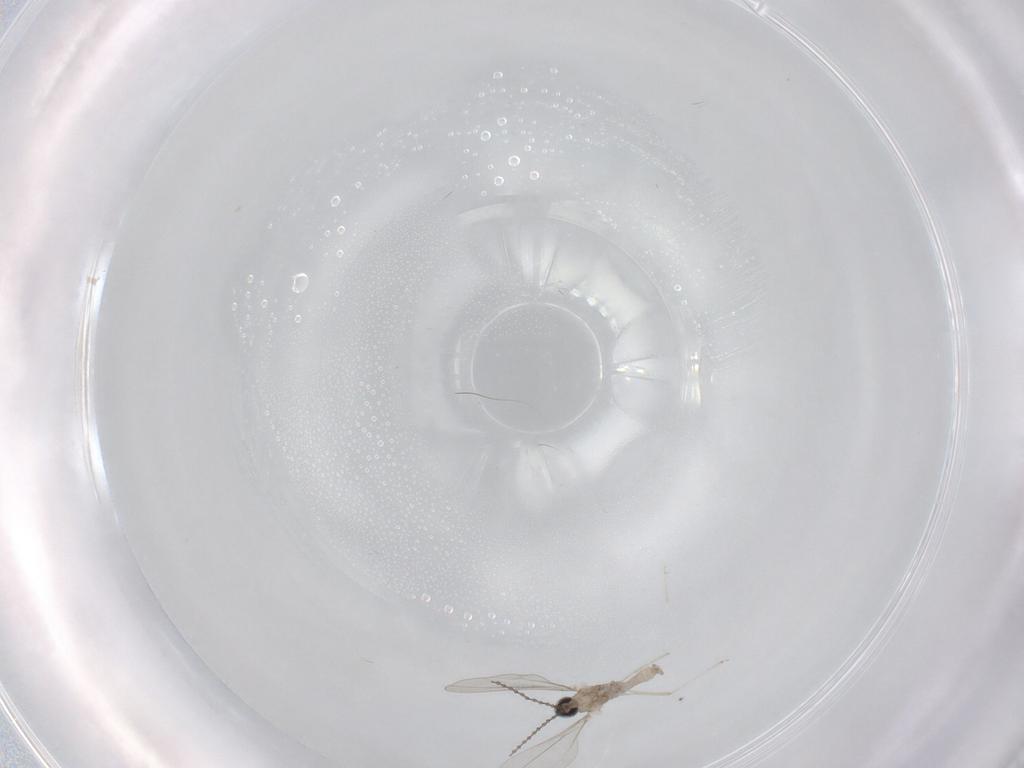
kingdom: Animalia
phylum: Arthropoda
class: Insecta
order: Diptera
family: Cecidomyiidae
